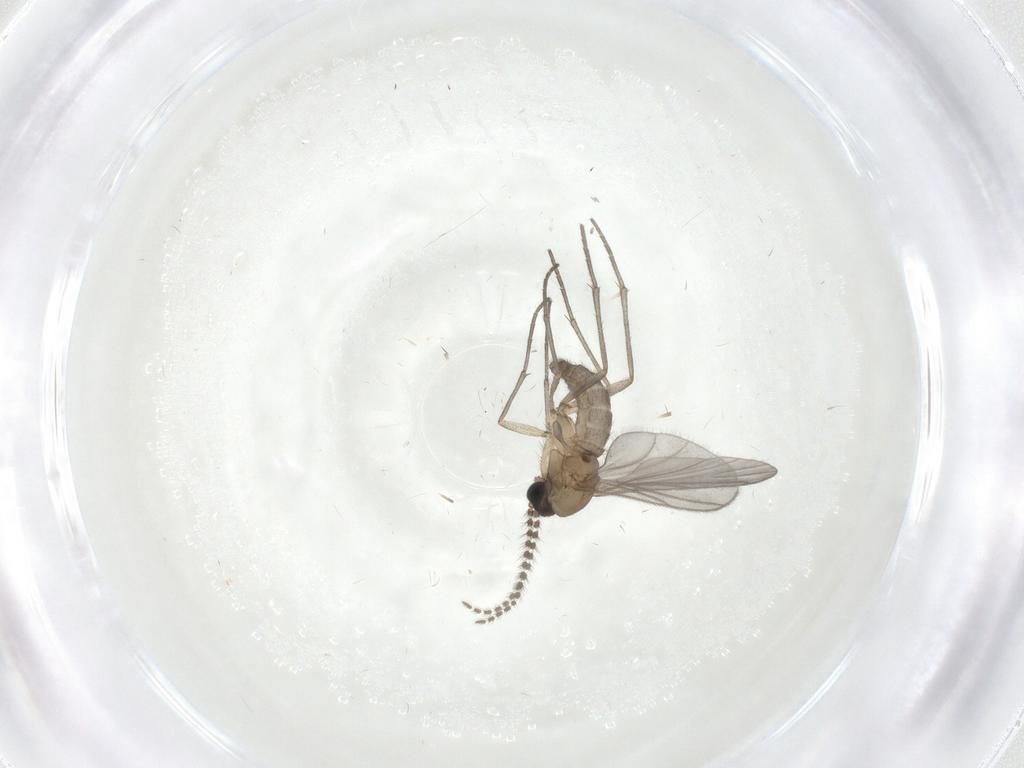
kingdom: Animalia
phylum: Arthropoda
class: Insecta
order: Diptera
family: Sciaridae
